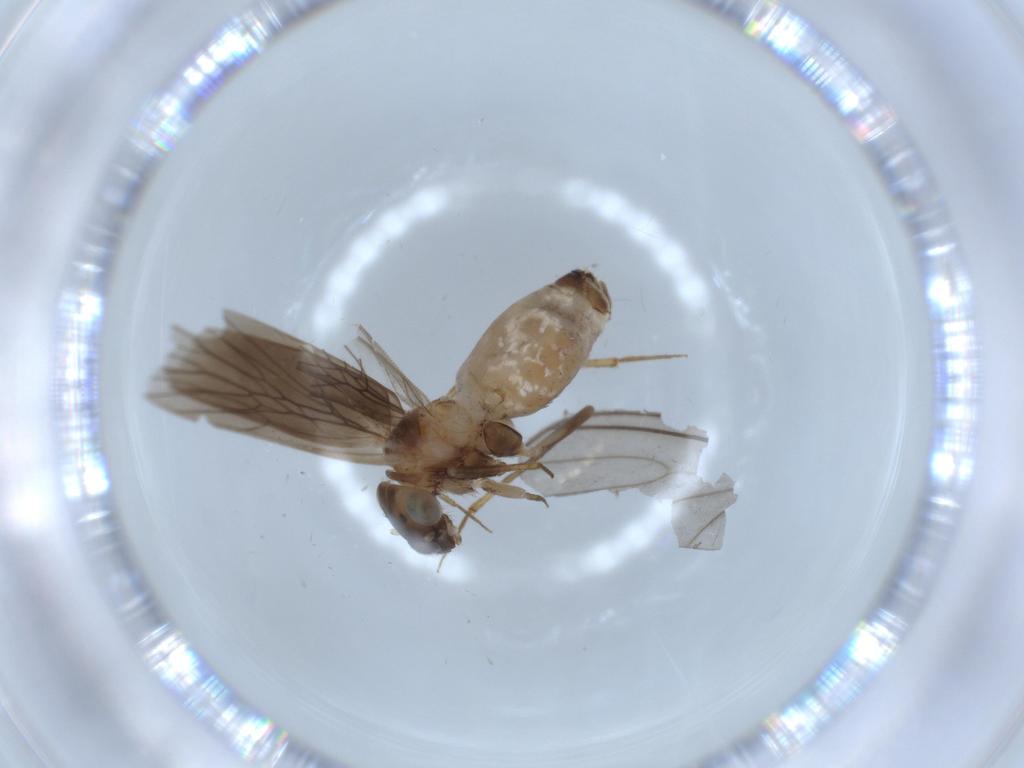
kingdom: Animalia
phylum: Arthropoda
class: Insecta
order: Psocodea
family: Lepidopsocidae
